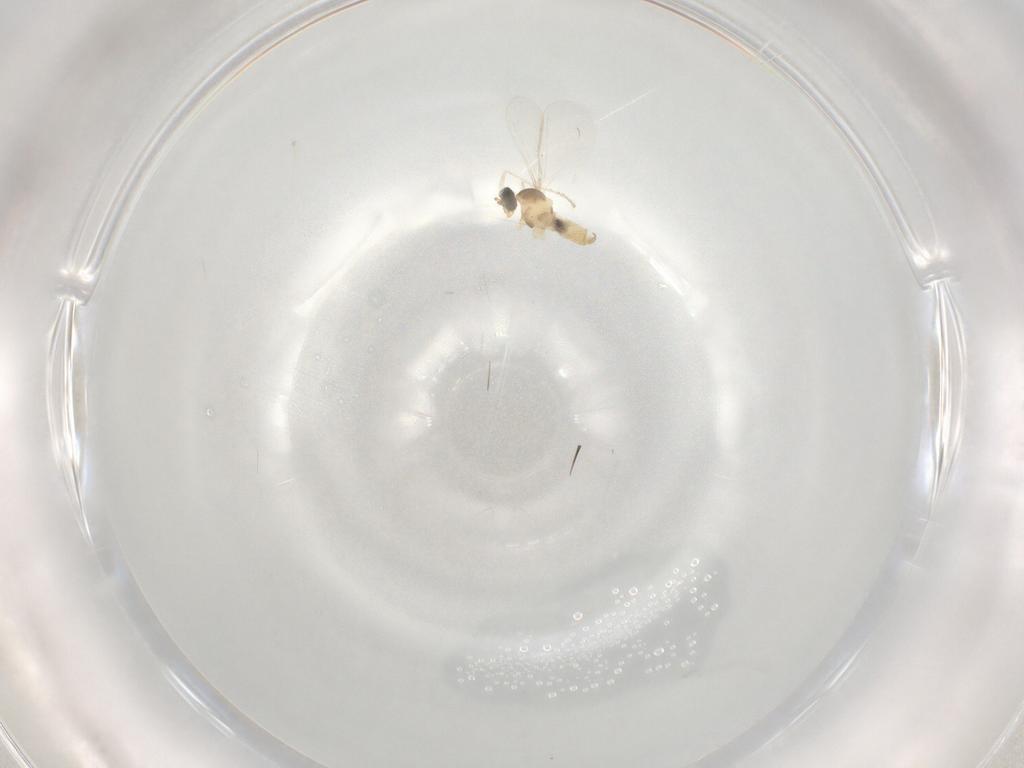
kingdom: Animalia
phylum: Arthropoda
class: Insecta
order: Diptera
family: Cecidomyiidae
